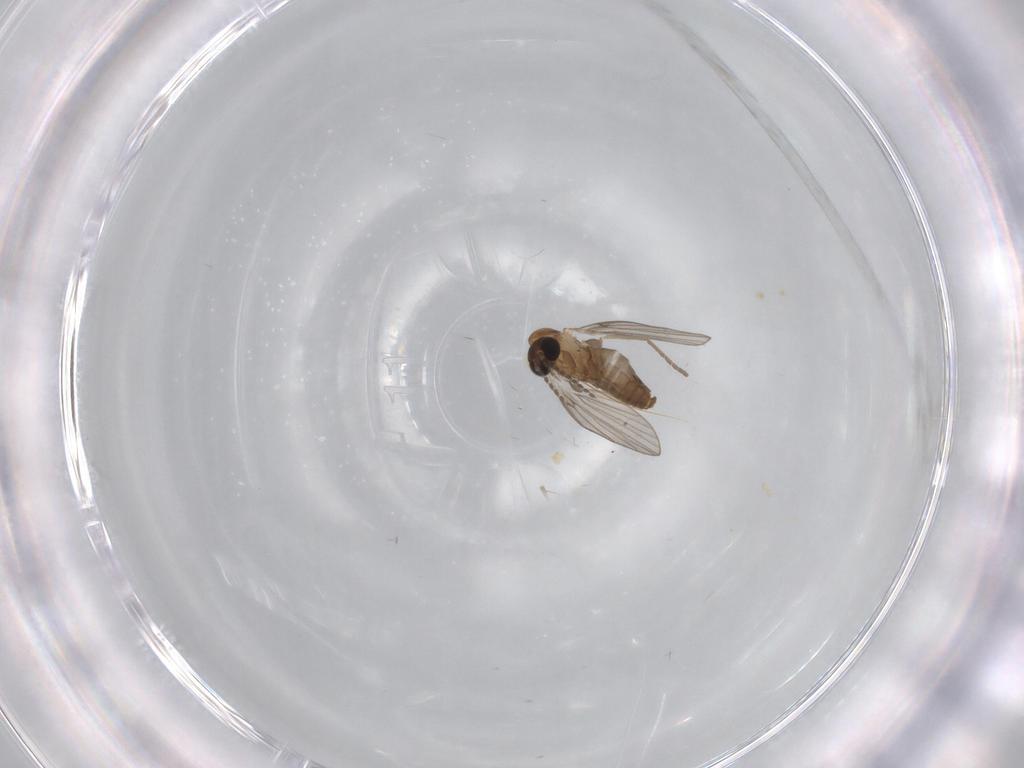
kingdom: Animalia
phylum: Arthropoda
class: Insecta
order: Diptera
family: Psychodidae
